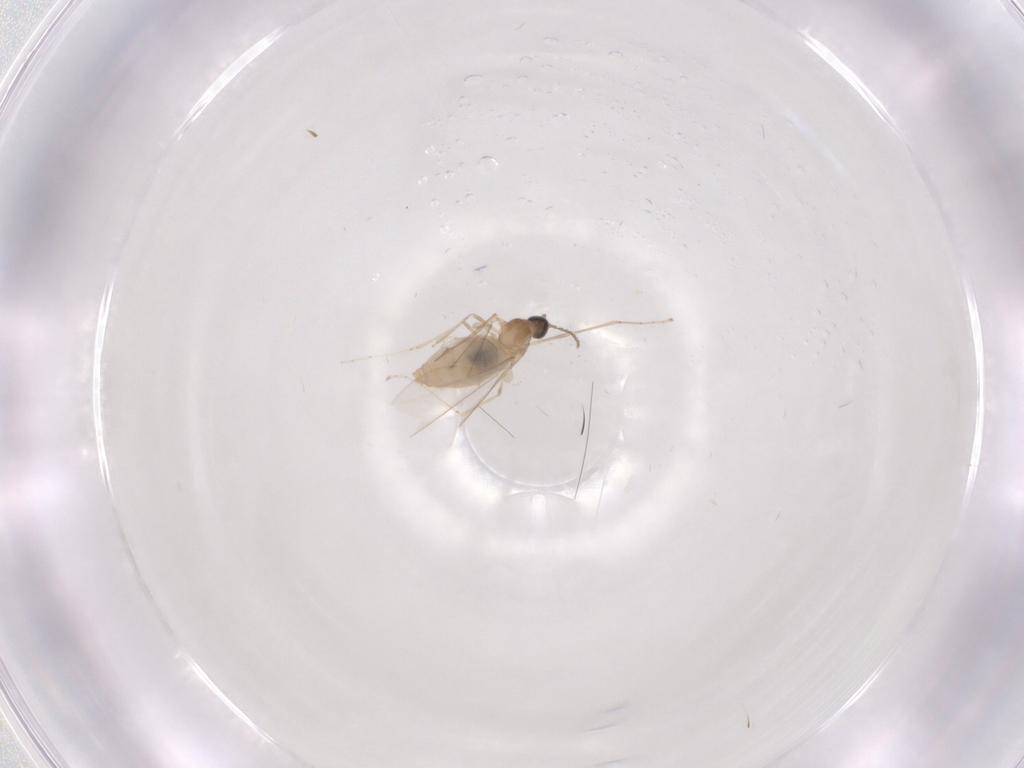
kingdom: Animalia
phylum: Arthropoda
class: Insecta
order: Diptera
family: Cecidomyiidae
